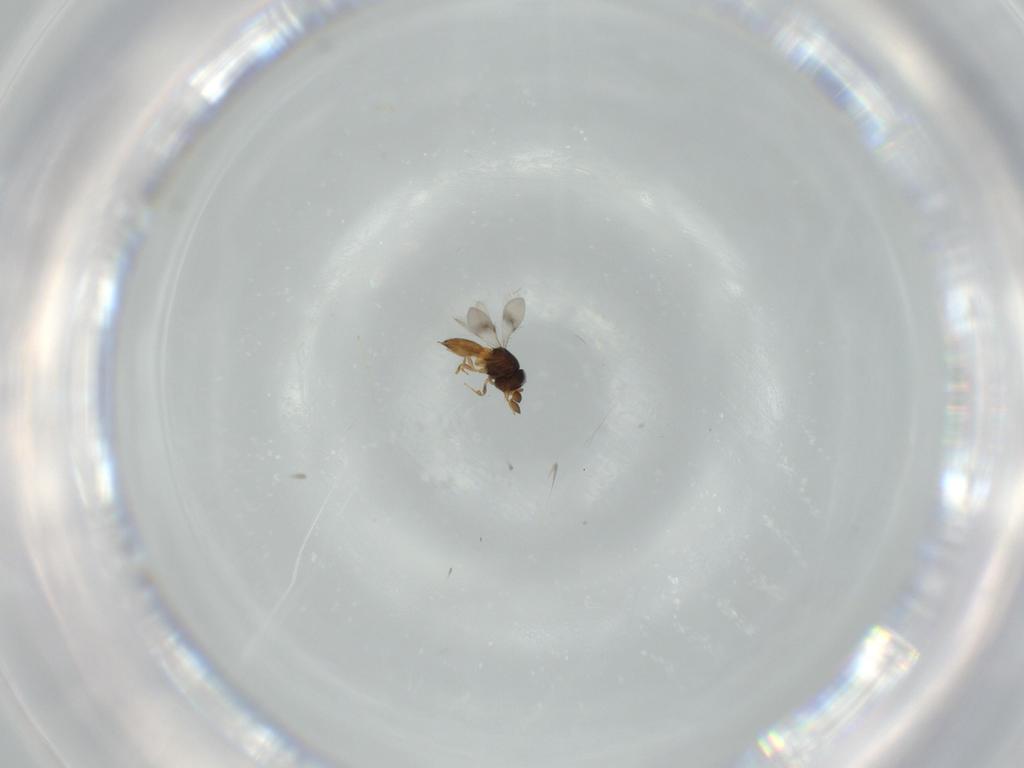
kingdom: Animalia
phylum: Arthropoda
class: Insecta
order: Hymenoptera
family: Scelionidae
